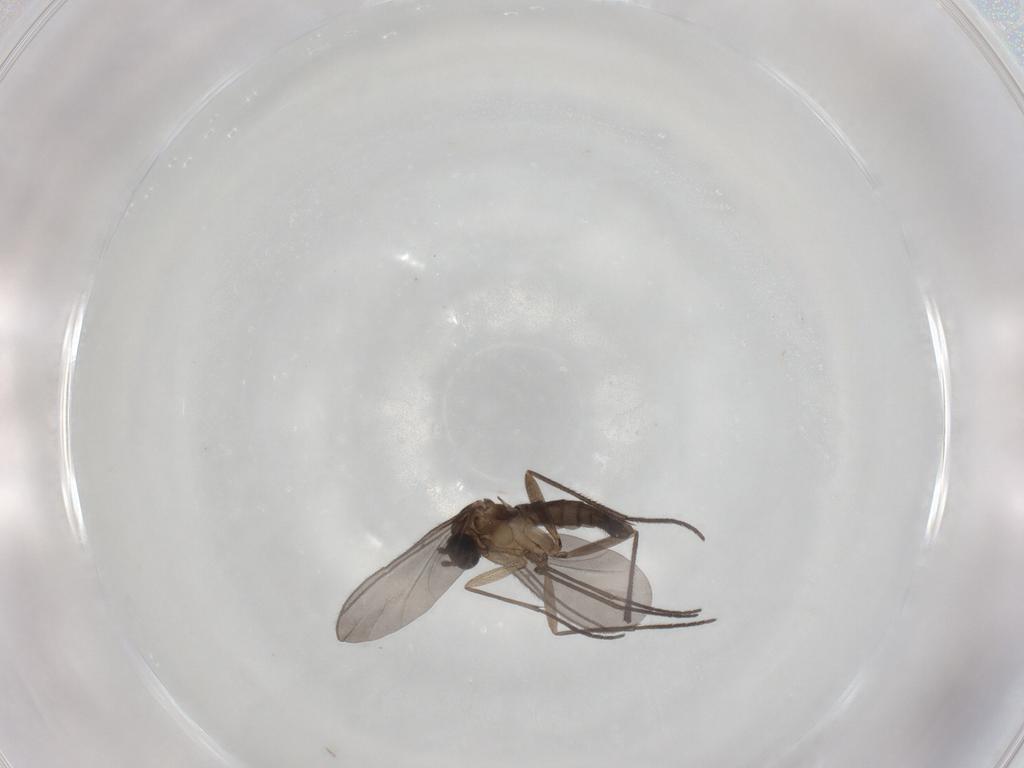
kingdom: Animalia
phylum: Arthropoda
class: Insecta
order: Diptera
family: Sciaridae
